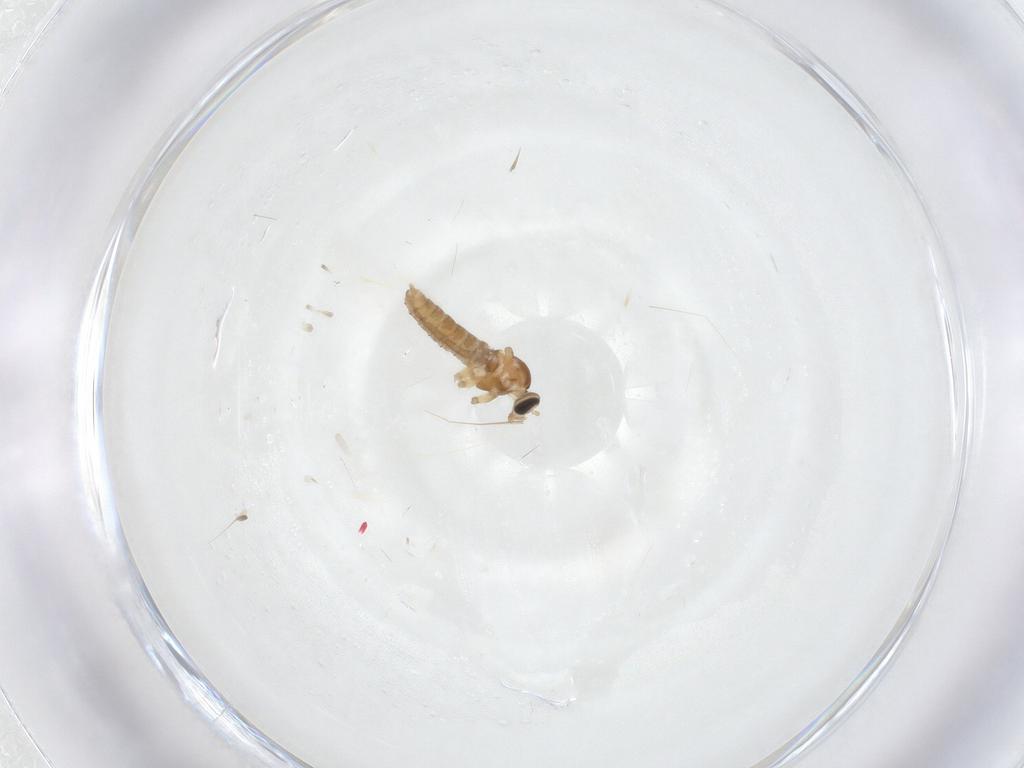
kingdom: Animalia
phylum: Arthropoda
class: Insecta
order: Diptera
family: Cecidomyiidae
